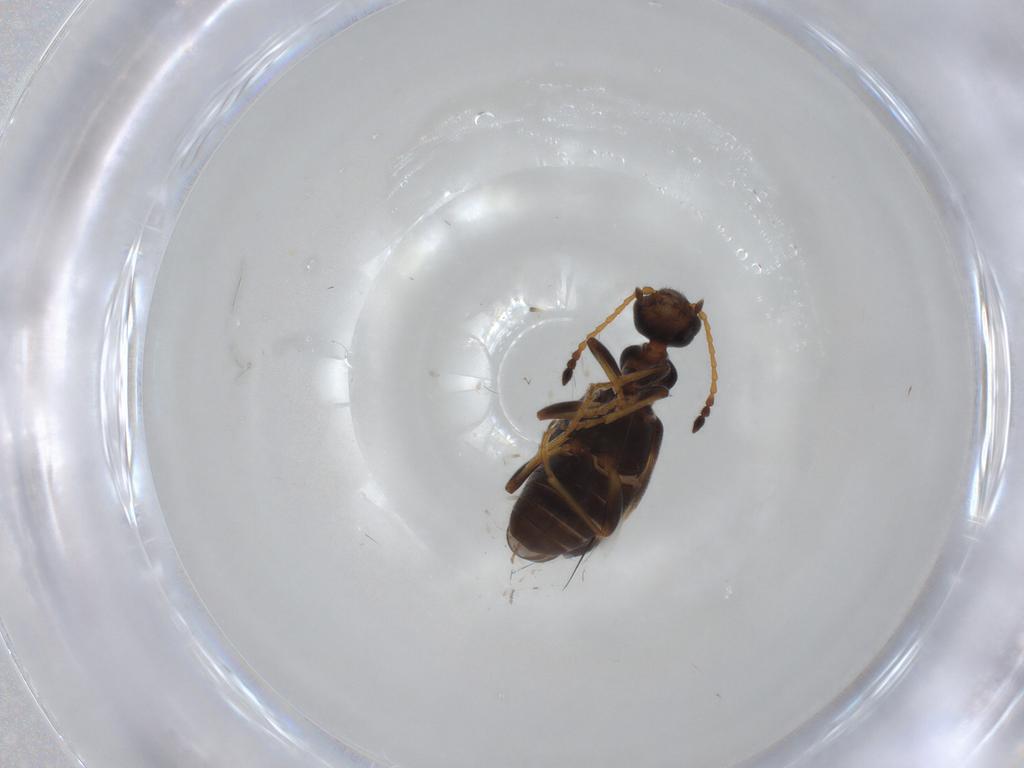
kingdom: Animalia
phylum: Arthropoda
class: Insecta
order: Coleoptera
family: Anthicidae
